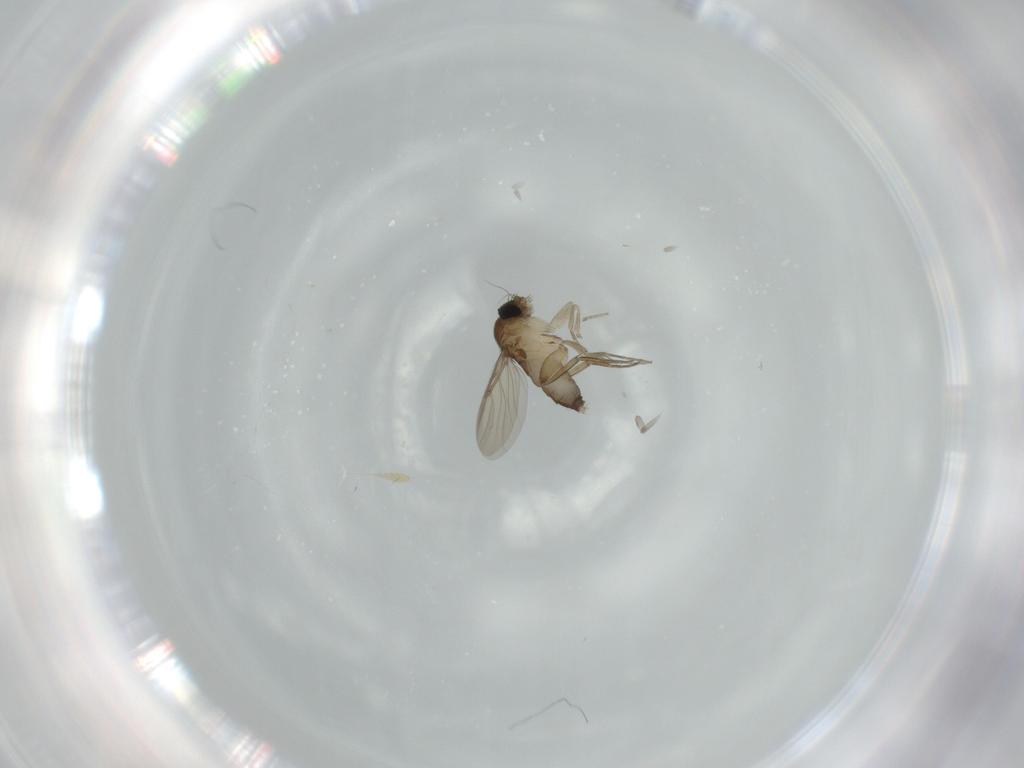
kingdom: Animalia
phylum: Arthropoda
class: Insecta
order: Diptera
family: Phoridae
